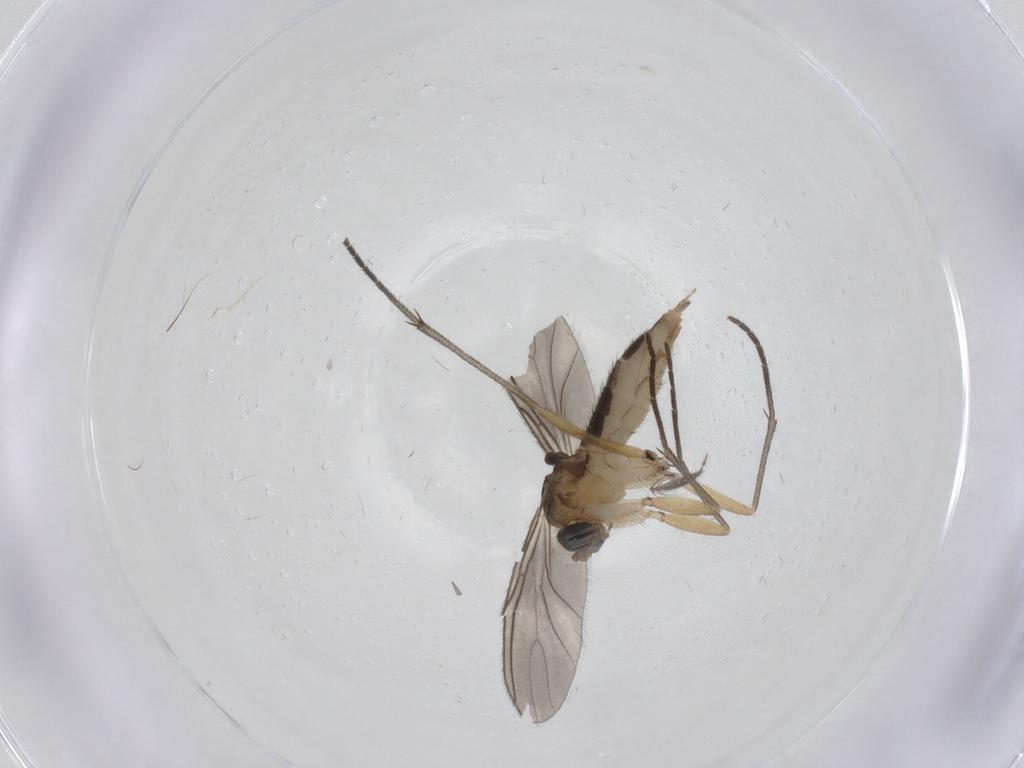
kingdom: Animalia
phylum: Arthropoda
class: Insecta
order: Diptera
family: Sciaridae
